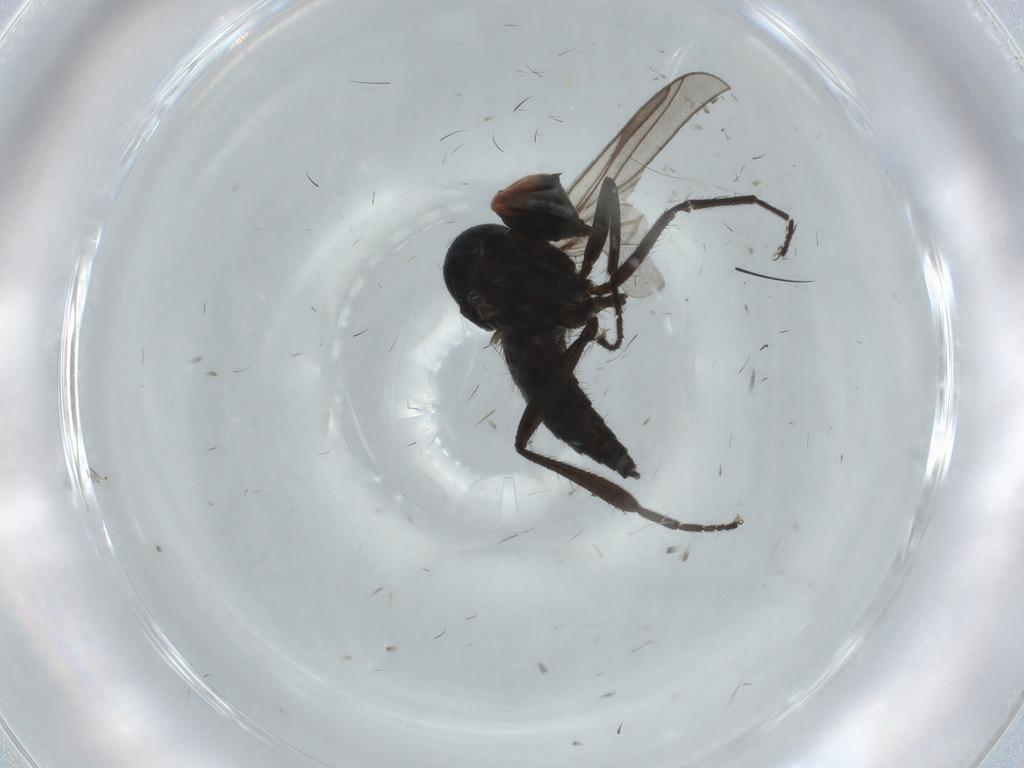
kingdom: Animalia
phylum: Arthropoda
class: Insecta
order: Diptera
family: Hybotidae
